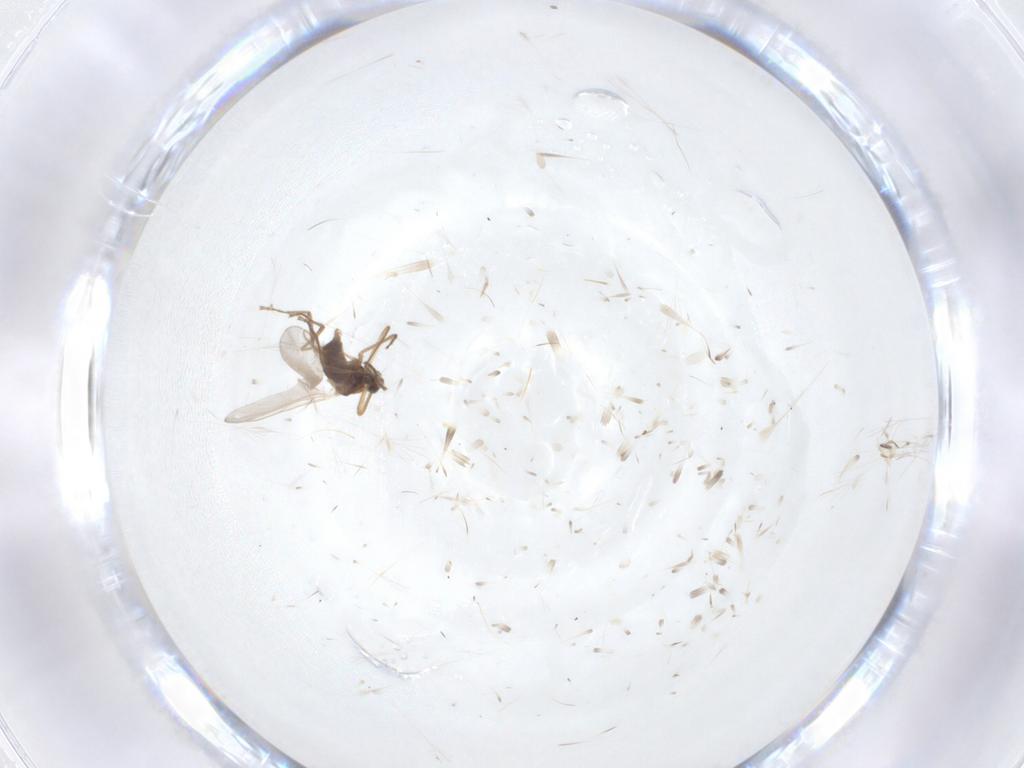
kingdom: Animalia
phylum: Arthropoda
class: Insecta
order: Diptera
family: Cecidomyiidae
